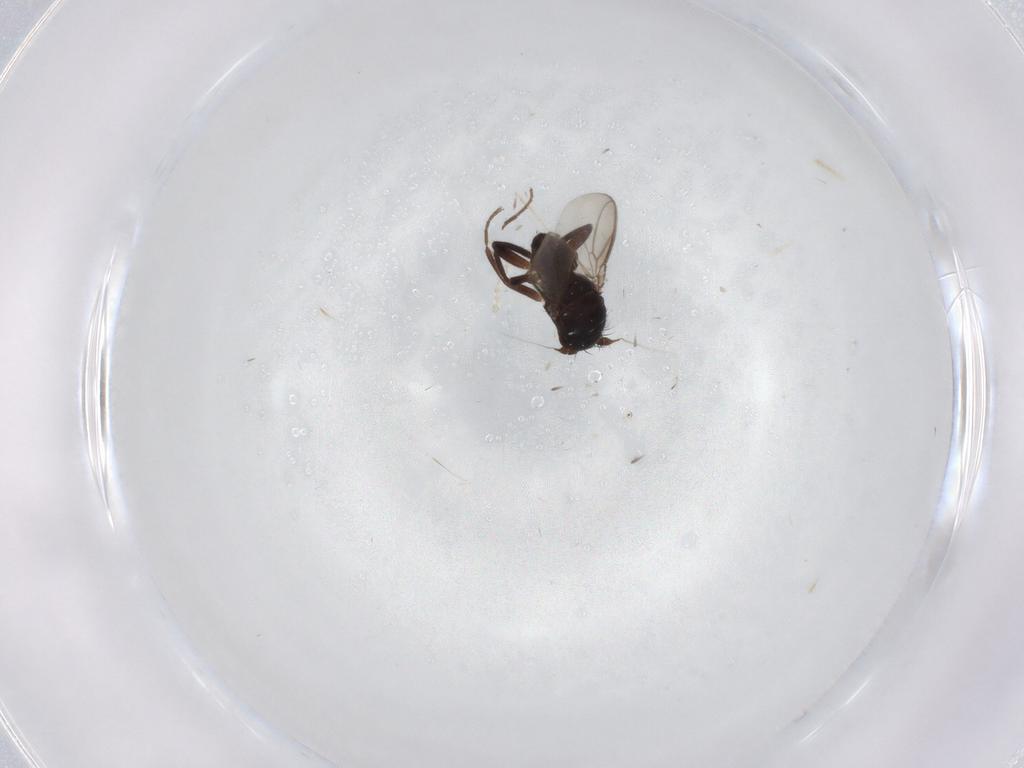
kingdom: Animalia
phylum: Arthropoda
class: Insecta
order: Diptera
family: Sphaeroceridae
